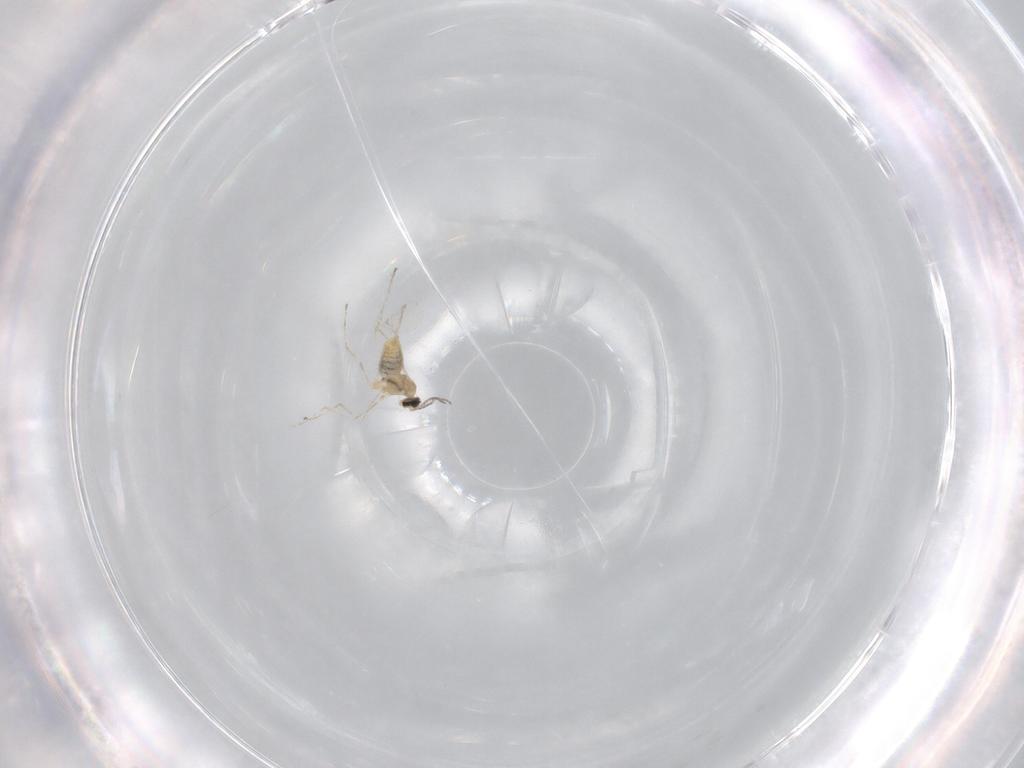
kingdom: Animalia
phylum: Arthropoda
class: Insecta
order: Diptera
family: Cecidomyiidae
